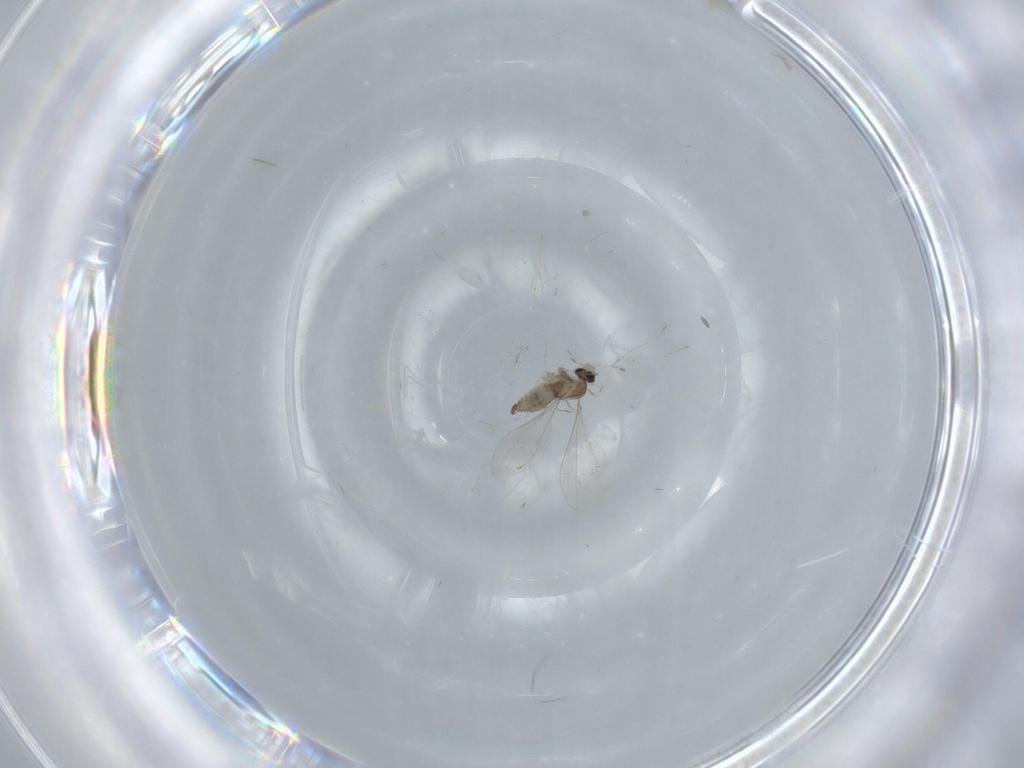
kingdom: Animalia
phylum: Arthropoda
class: Insecta
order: Diptera
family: Cecidomyiidae
